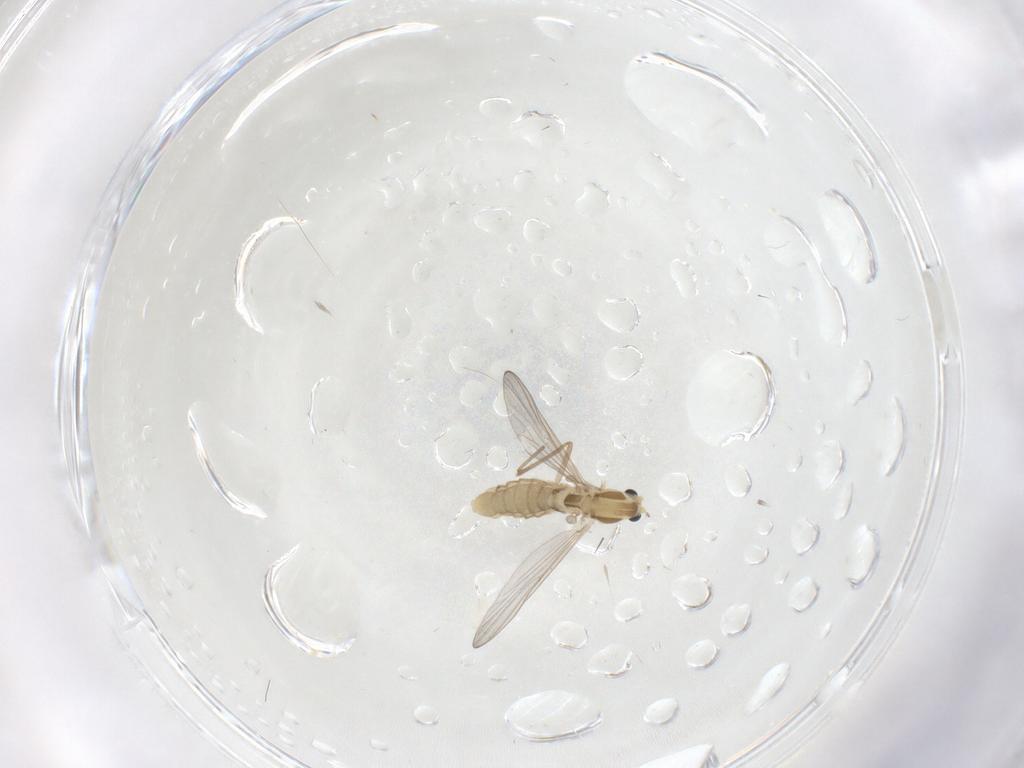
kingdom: Animalia
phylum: Arthropoda
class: Insecta
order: Diptera
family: Chironomidae
